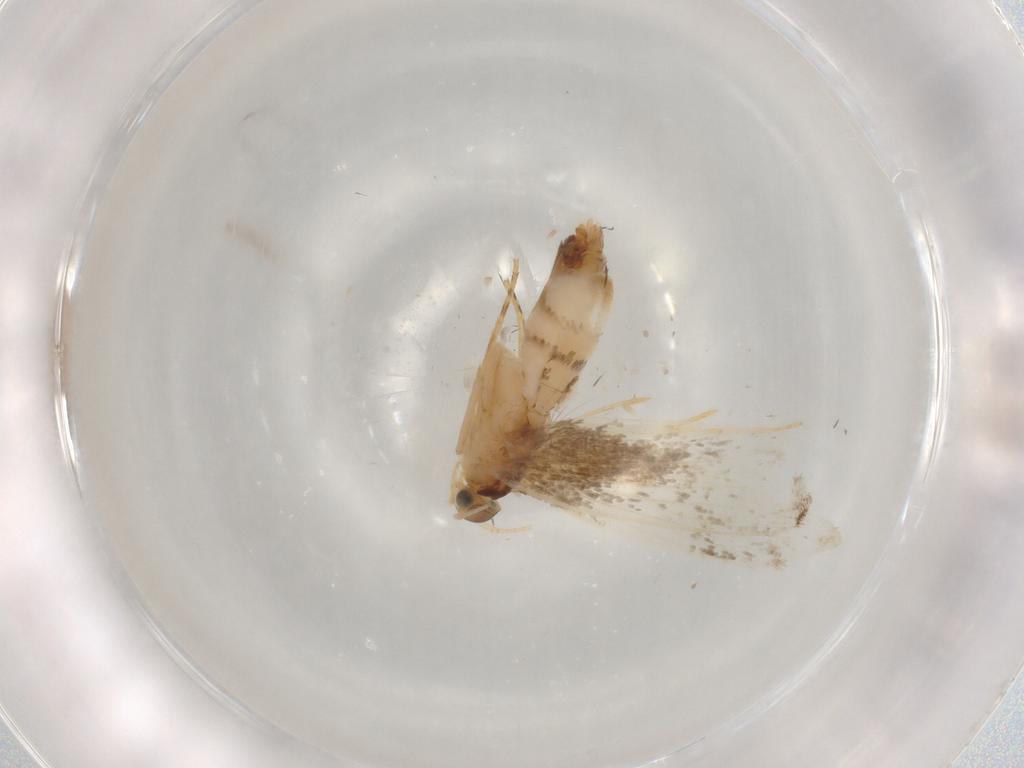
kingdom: Animalia
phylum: Arthropoda
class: Insecta
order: Lepidoptera
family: Dryadaulidae
